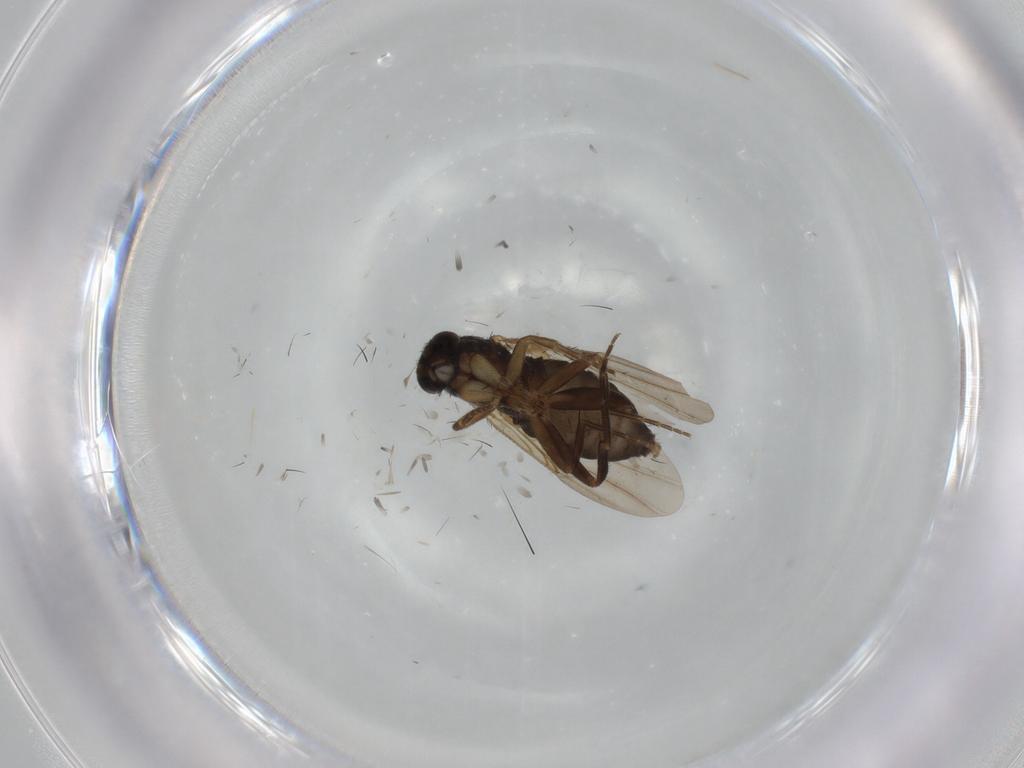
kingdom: Animalia
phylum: Arthropoda
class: Insecta
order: Diptera
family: Phoridae
